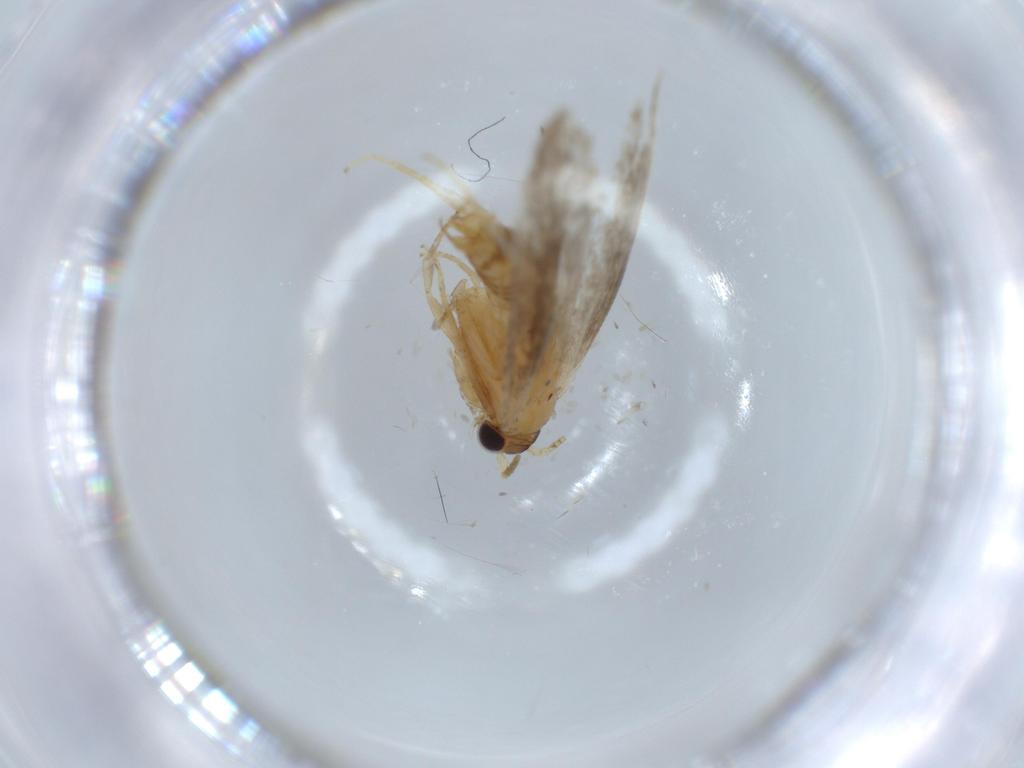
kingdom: Animalia
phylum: Arthropoda
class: Insecta
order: Lepidoptera
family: Tineidae
